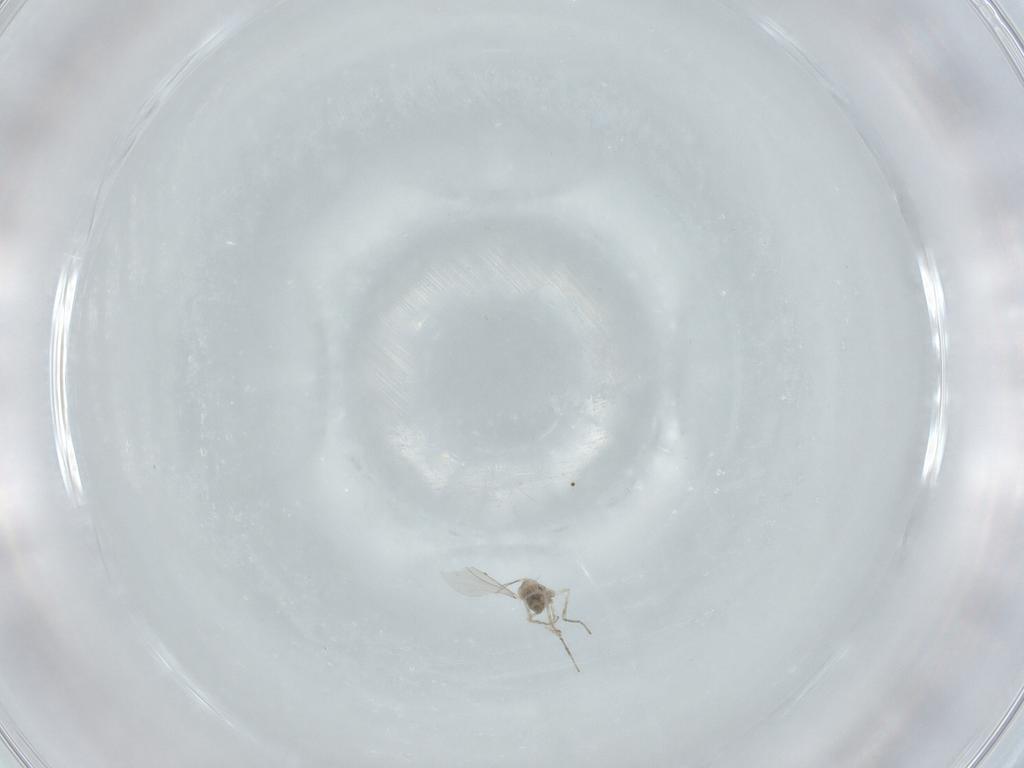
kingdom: Animalia
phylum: Arthropoda
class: Insecta
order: Diptera
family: Cecidomyiidae
